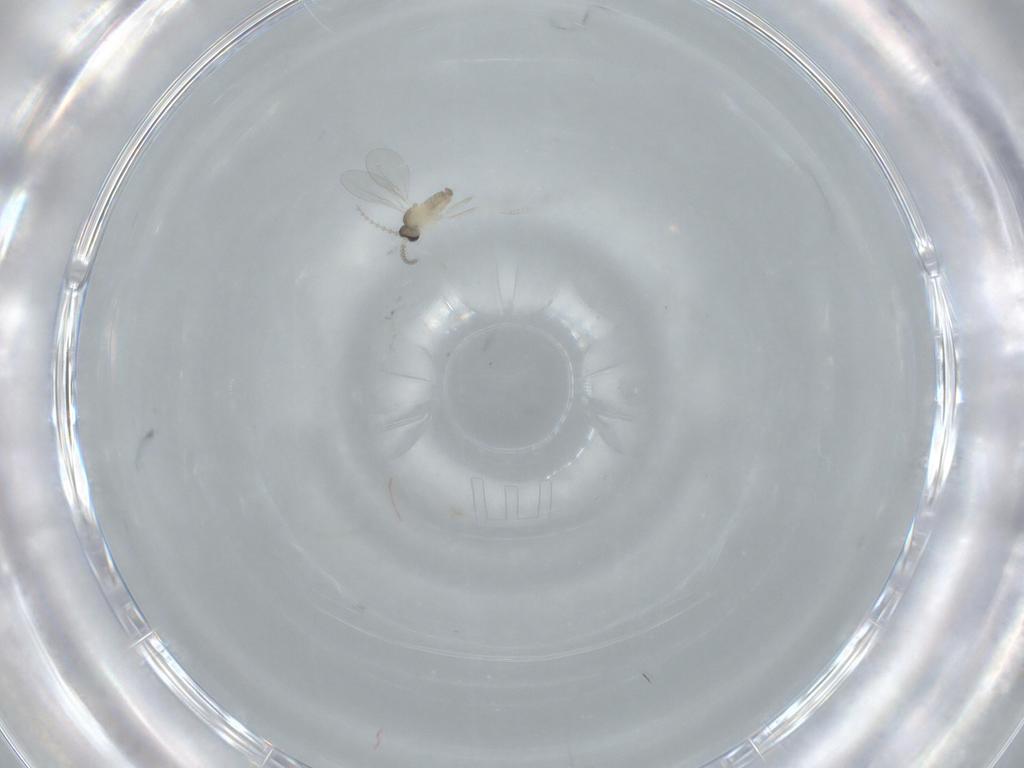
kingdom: Animalia
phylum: Arthropoda
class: Insecta
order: Diptera
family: Cecidomyiidae
